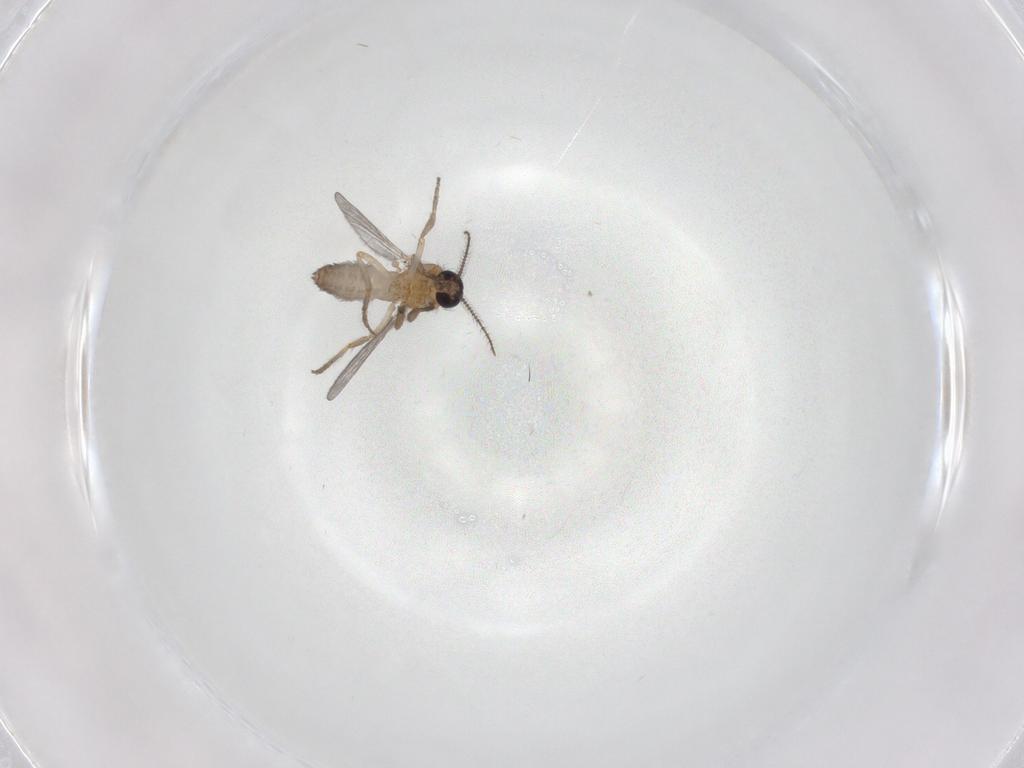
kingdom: Animalia
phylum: Arthropoda
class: Insecta
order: Diptera
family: Ceratopogonidae
